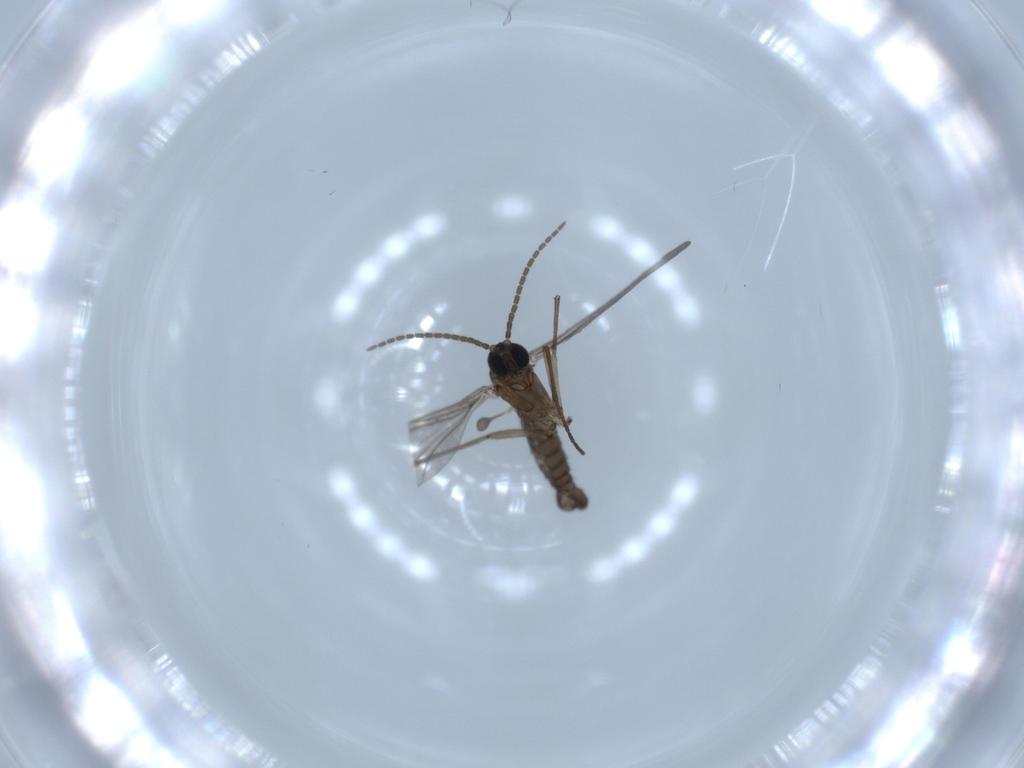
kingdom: Animalia
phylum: Arthropoda
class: Insecta
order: Diptera
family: Sciaridae
